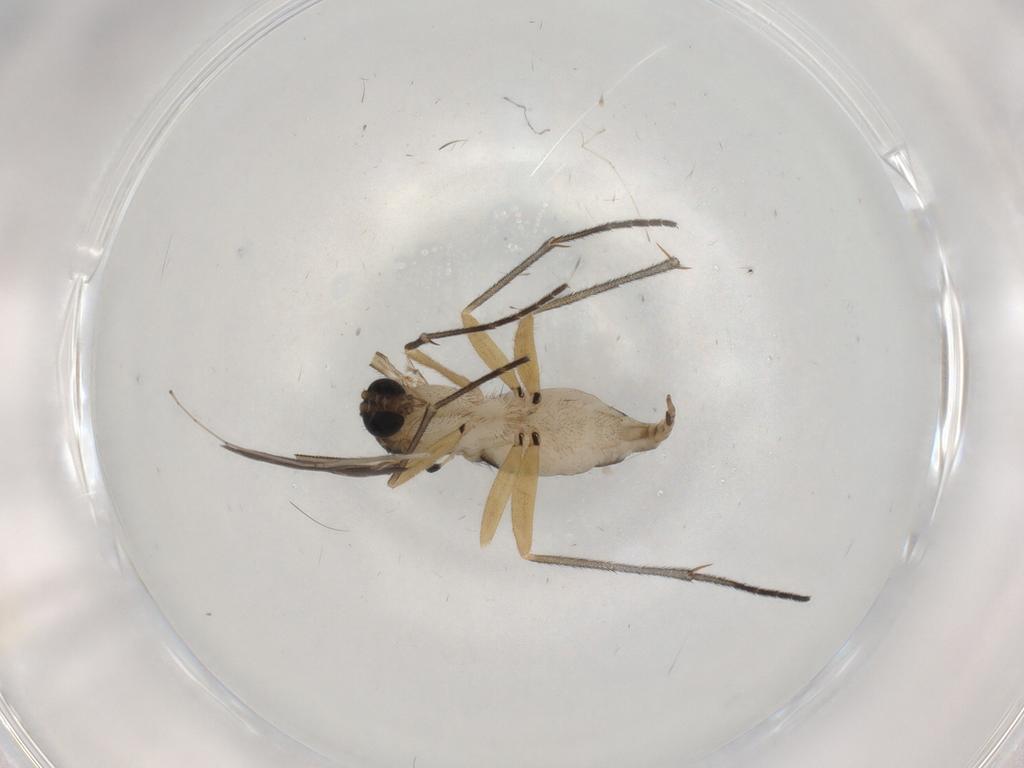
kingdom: Animalia
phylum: Arthropoda
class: Insecta
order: Diptera
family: Sciaridae
